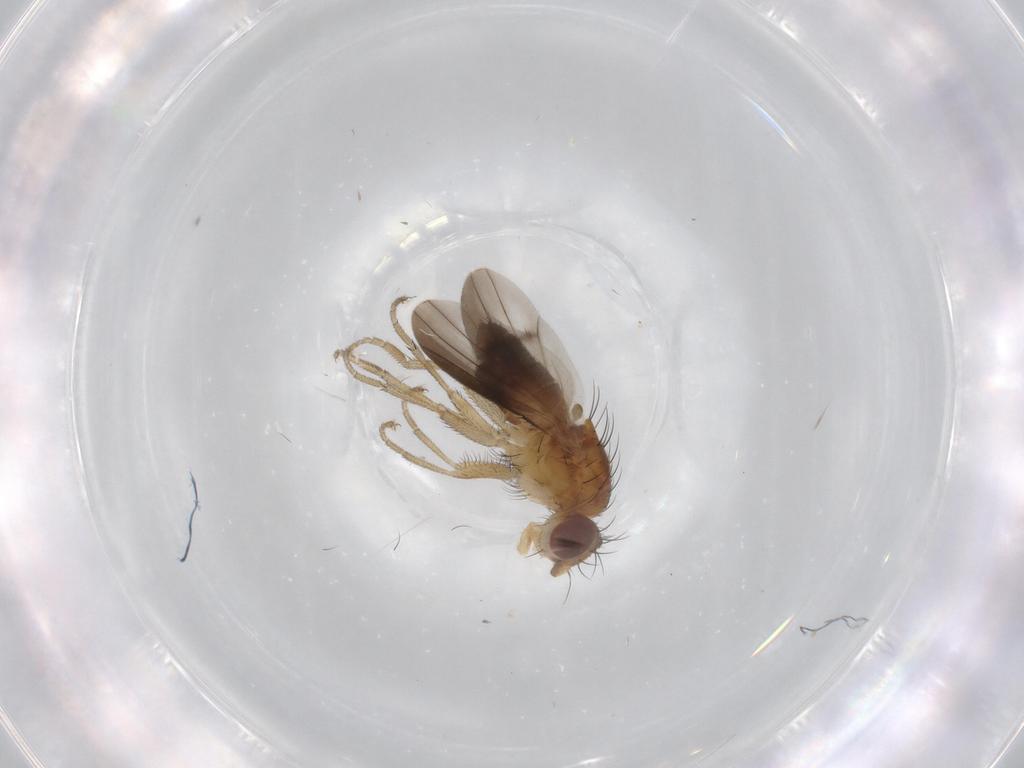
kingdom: Animalia
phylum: Arthropoda
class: Insecta
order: Diptera
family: Heleomyzidae
